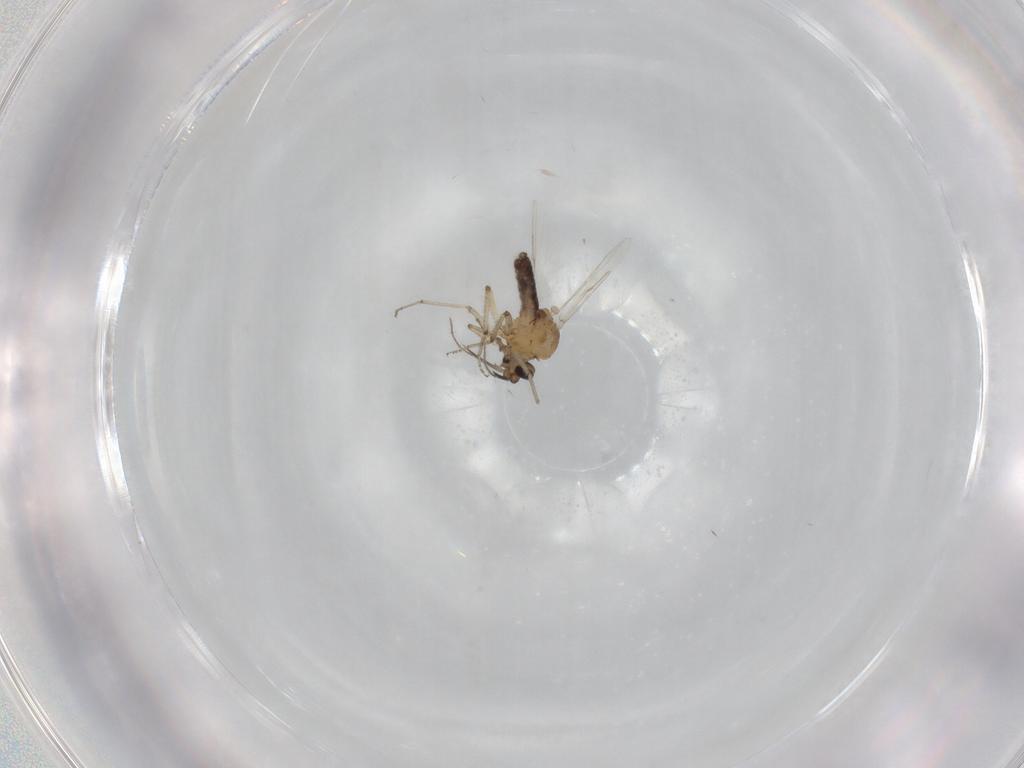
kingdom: Animalia
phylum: Arthropoda
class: Insecta
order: Diptera
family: Ceratopogonidae
